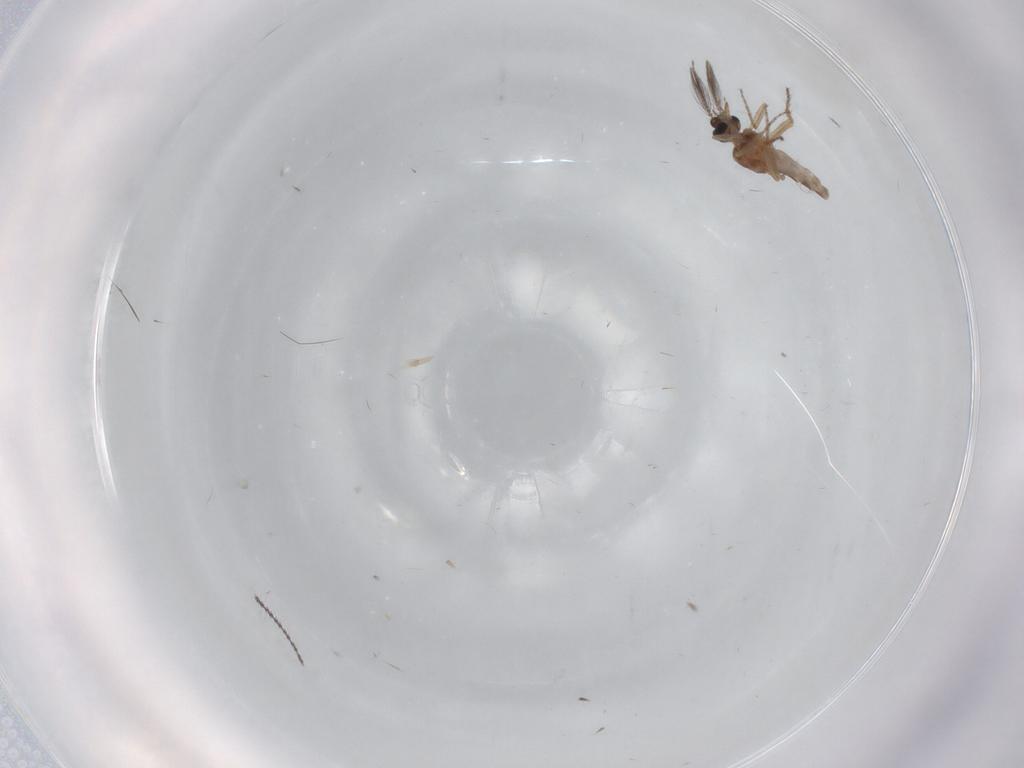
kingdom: Animalia
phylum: Arthropoda
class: Insecta
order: Diptera
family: Ceratopogonidae
